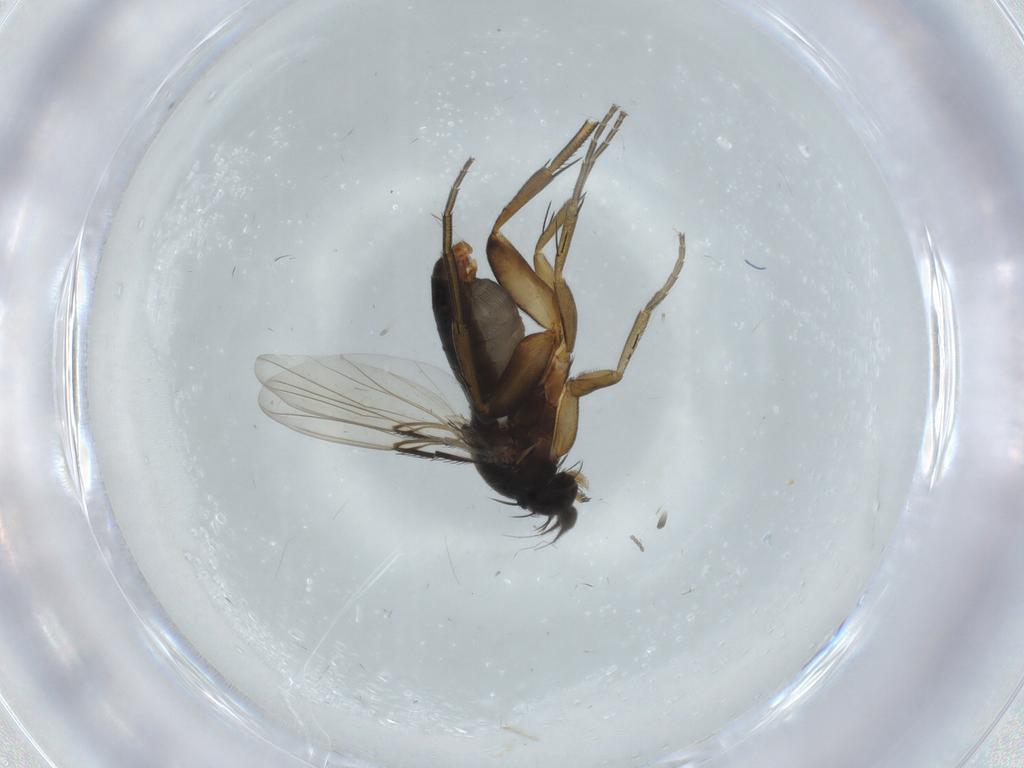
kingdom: Animalia
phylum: Arthropoda
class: Insecta
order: Diptera
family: Phoridae
